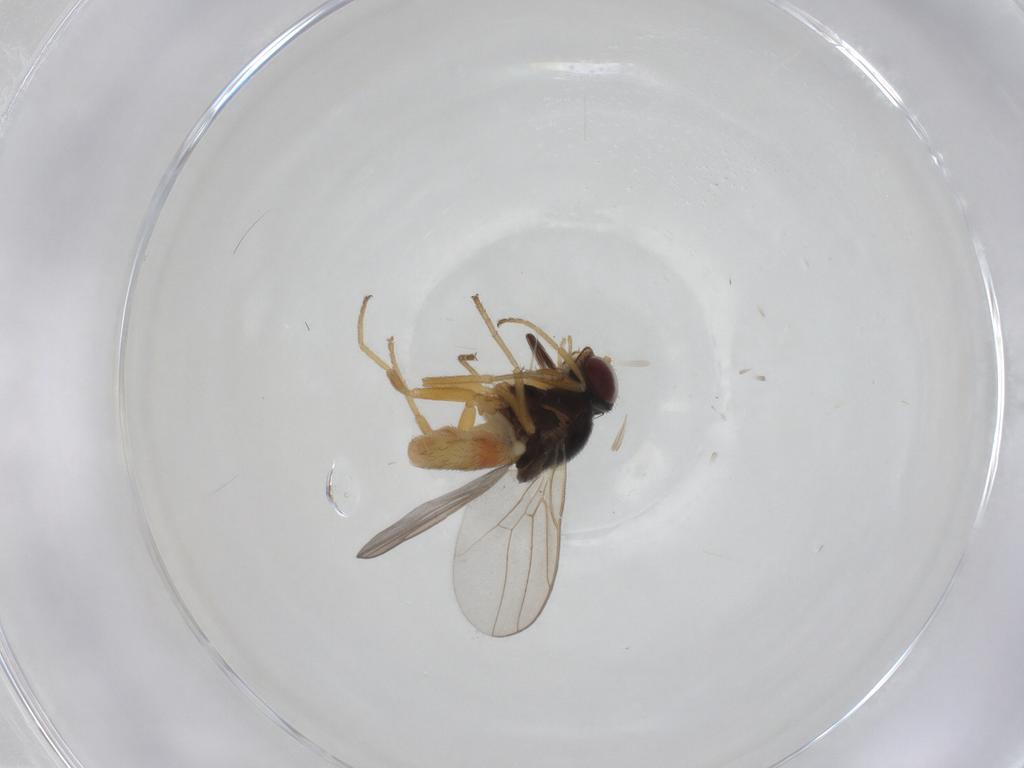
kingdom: Animalia
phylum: Arthropoda
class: Insecta
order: Diptera
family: Chloropidae
